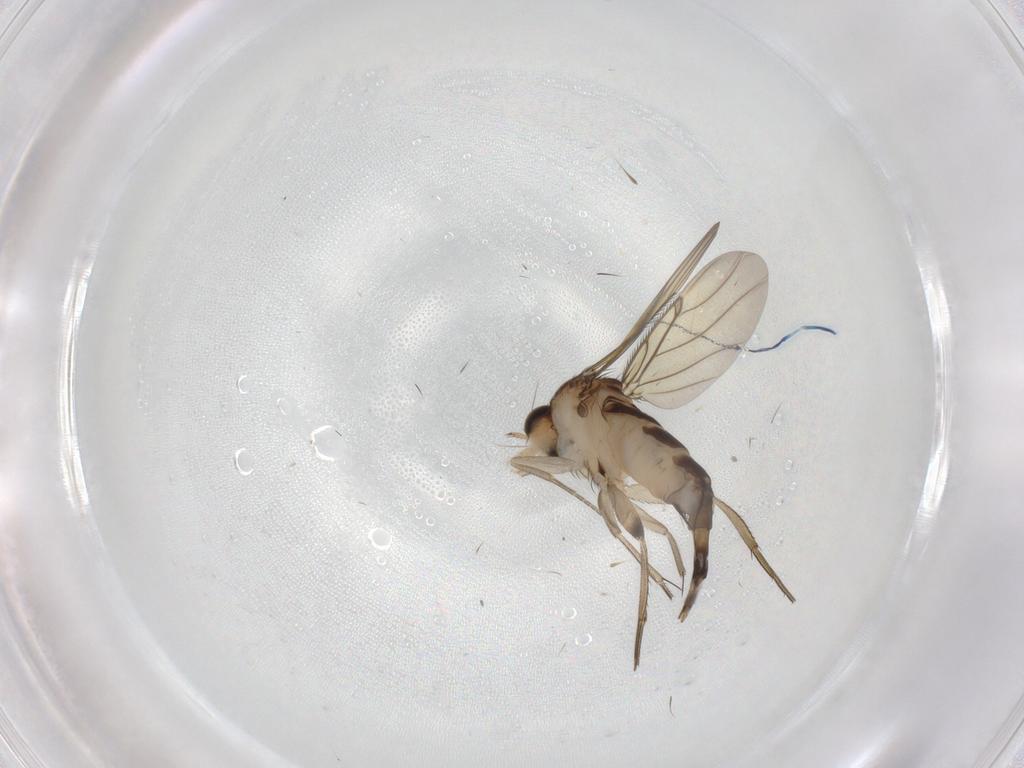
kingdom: Animalia
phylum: Arthropoda
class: Insecta
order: Diptera
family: Phoridae
